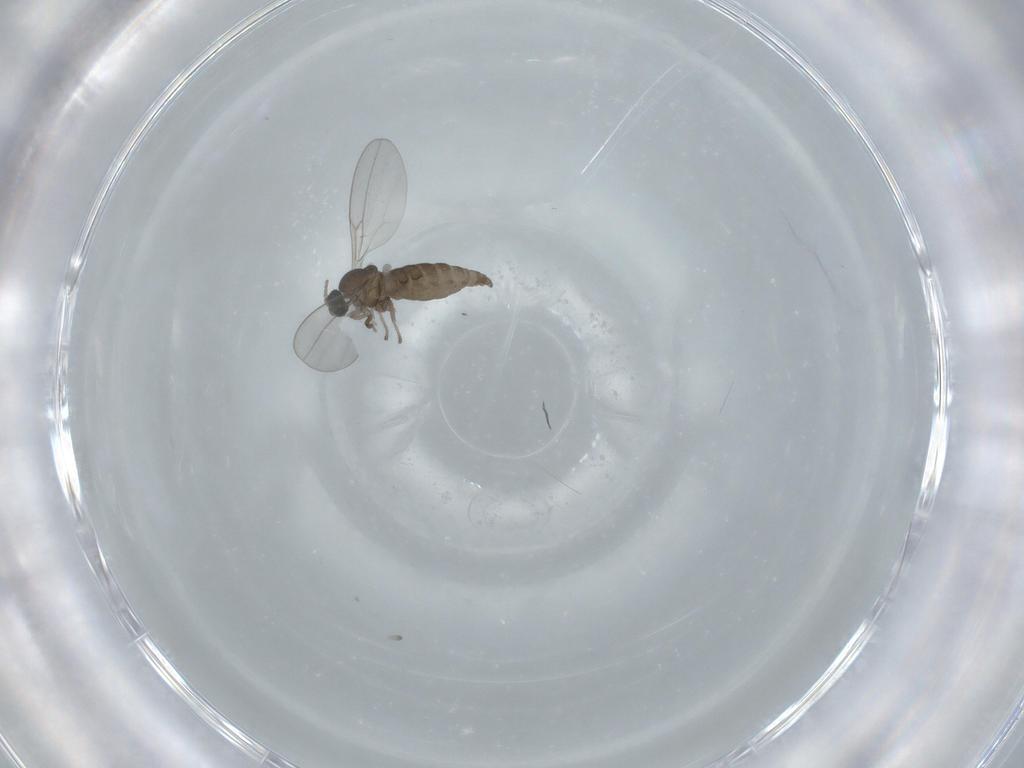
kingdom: Animalia
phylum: Arthropoda
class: Insecta
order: Diptera
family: Cecidomyiidae
